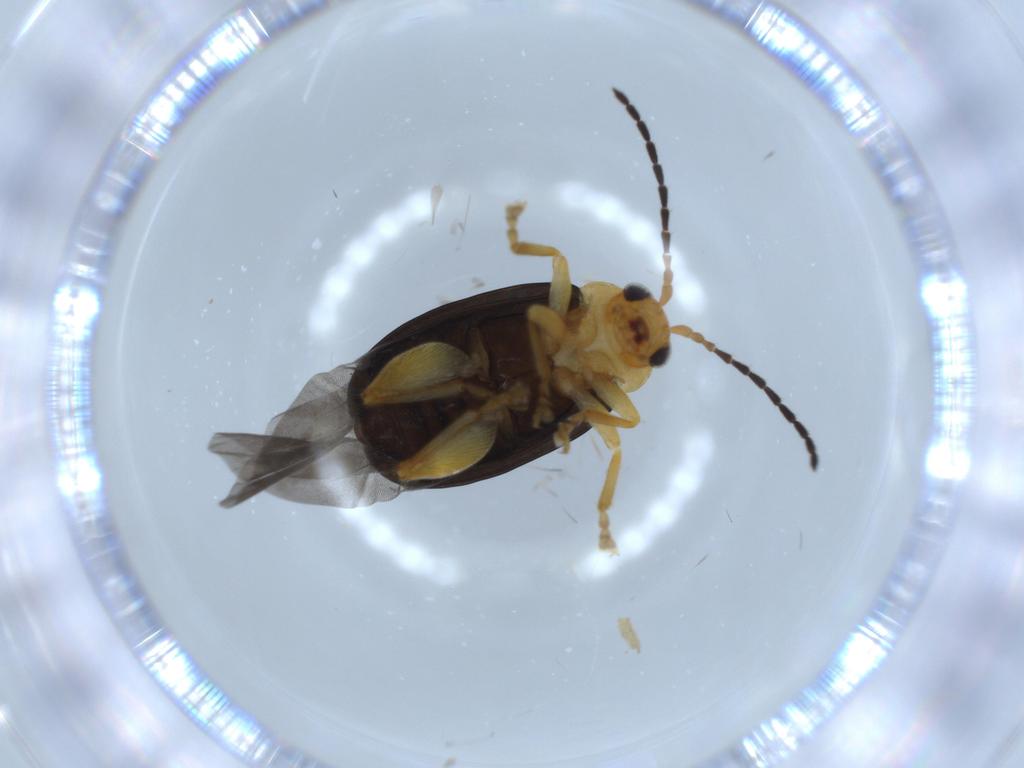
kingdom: Animalia
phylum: Arthropoda
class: Insecta
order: Coleoptera
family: Chrysomelidae
